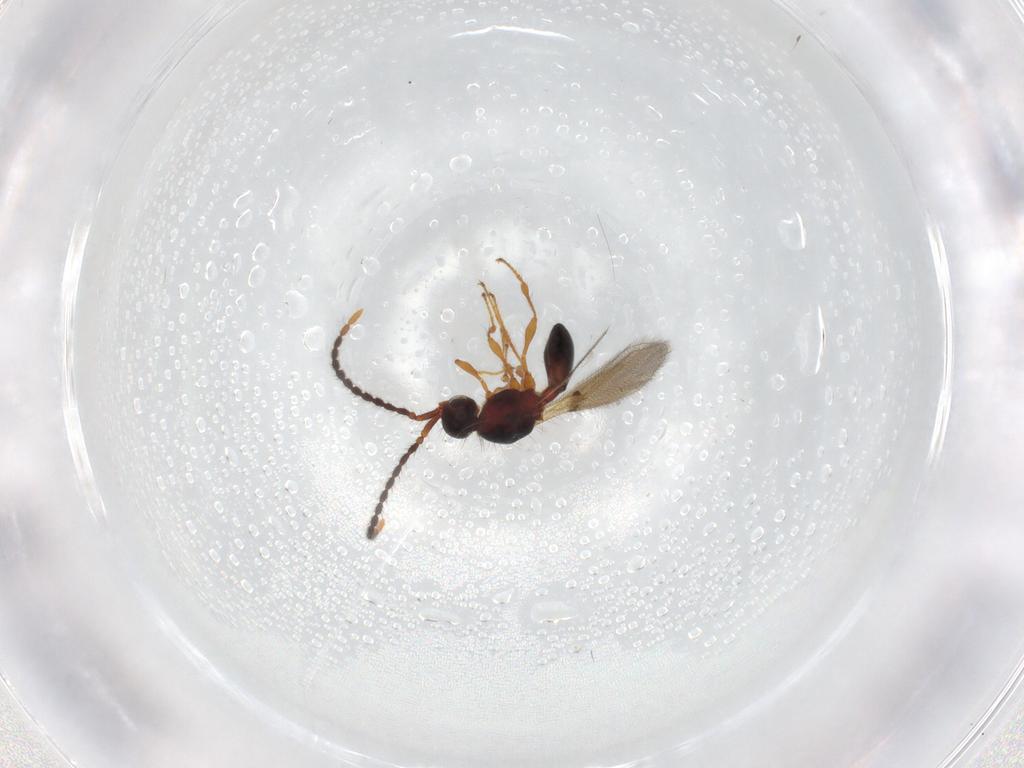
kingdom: Animalia
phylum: Arthropoda
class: Insecta
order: Hymenoptera
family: Diapriidae
